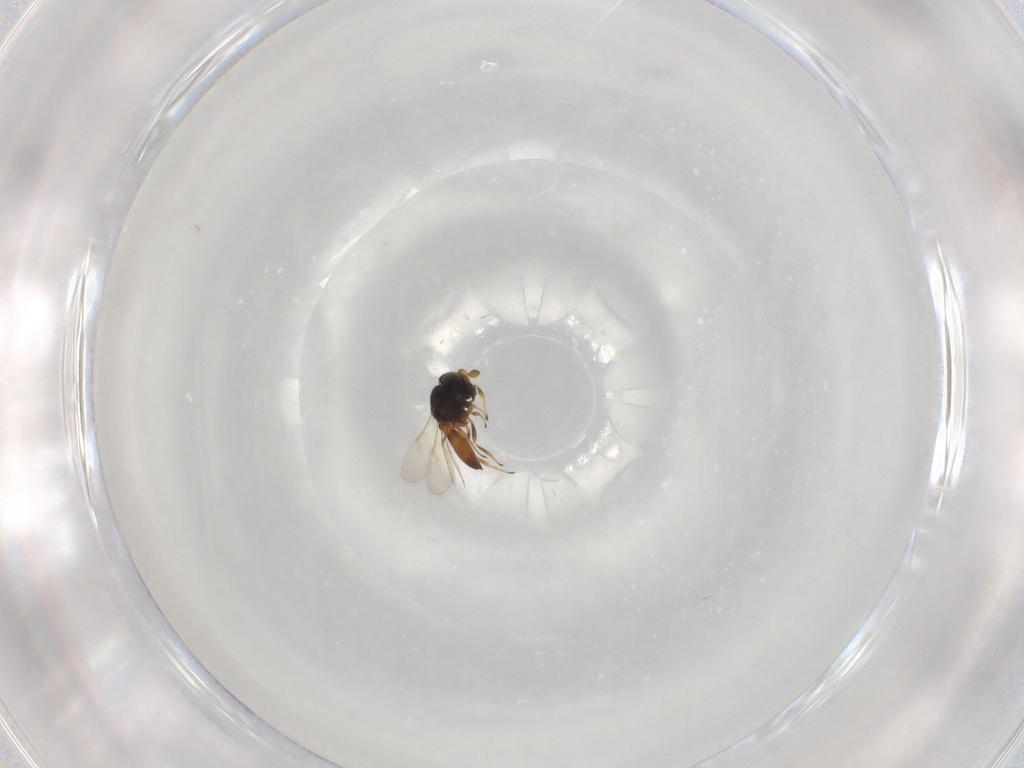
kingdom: Animalia
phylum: Arthropoda
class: Insecta
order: Hymenoptera
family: Scelionidae
